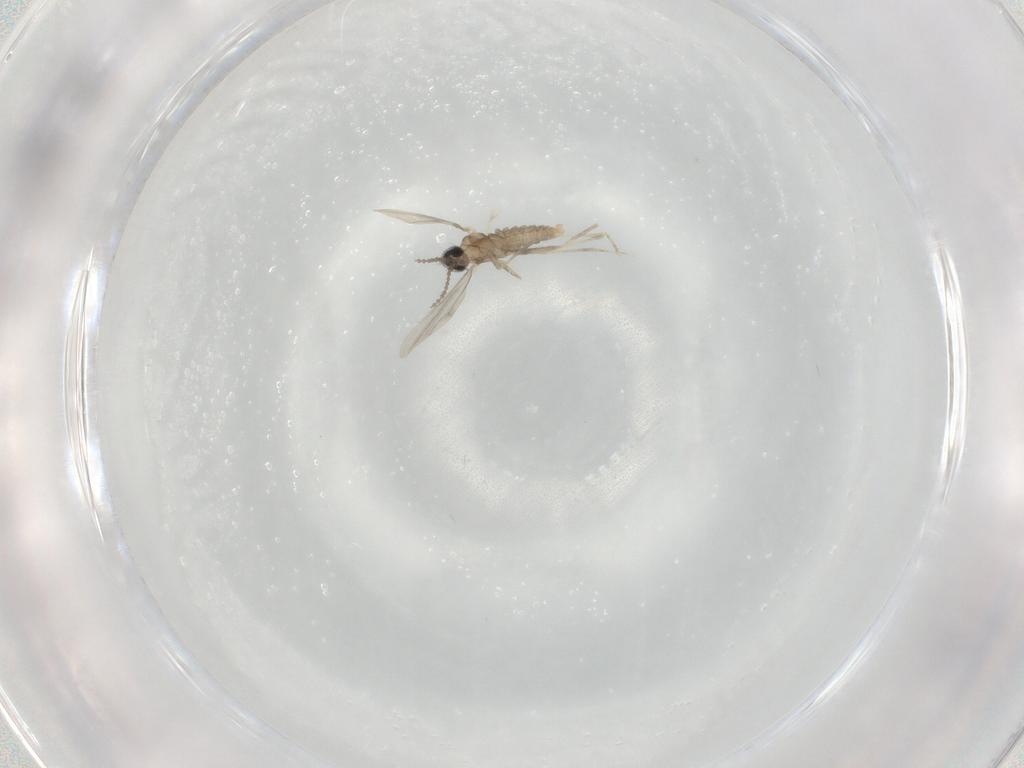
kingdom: Animalia
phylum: Arthropoda
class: Insecta
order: Diptera
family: Cecidomyiidae
